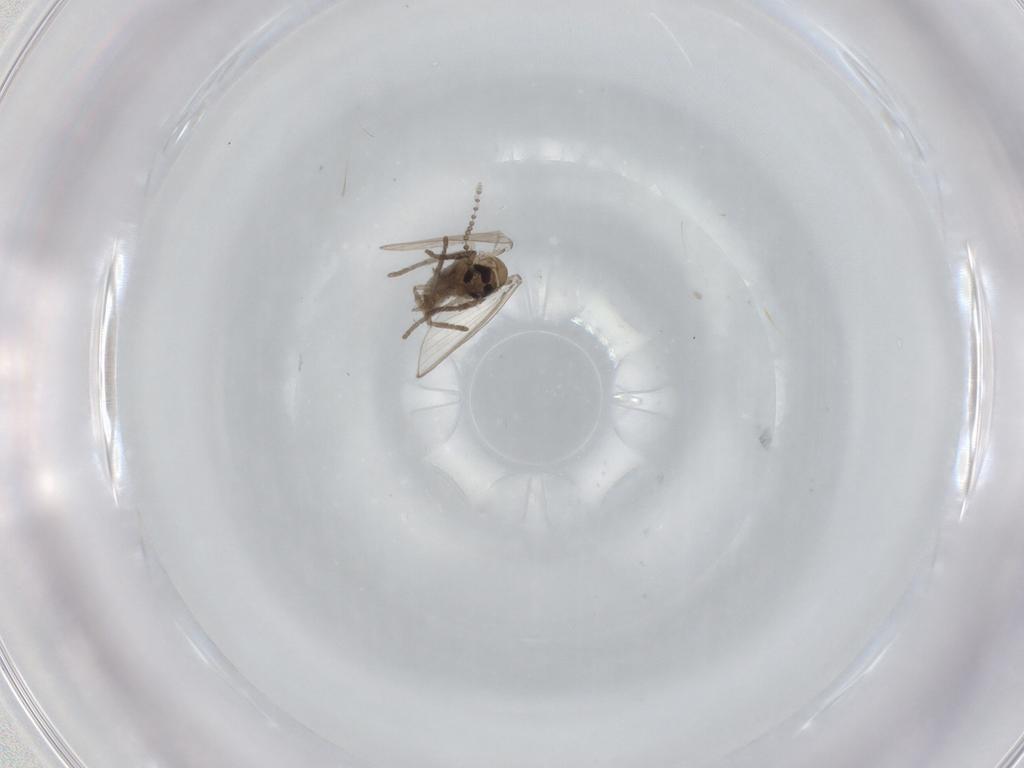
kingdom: Animalia
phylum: Arthropoda
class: Insecta
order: Diptera
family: Psychodidae
